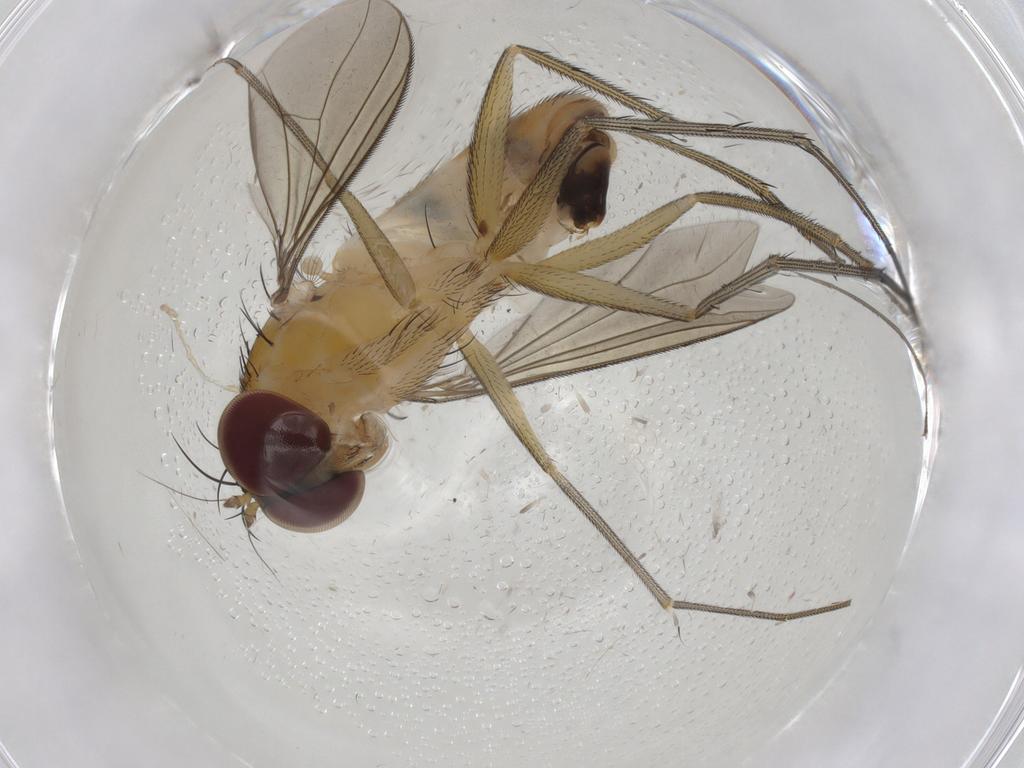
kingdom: Animalia
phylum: Arthropoda
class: Insecta
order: Diptera
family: Dolichopodidae
